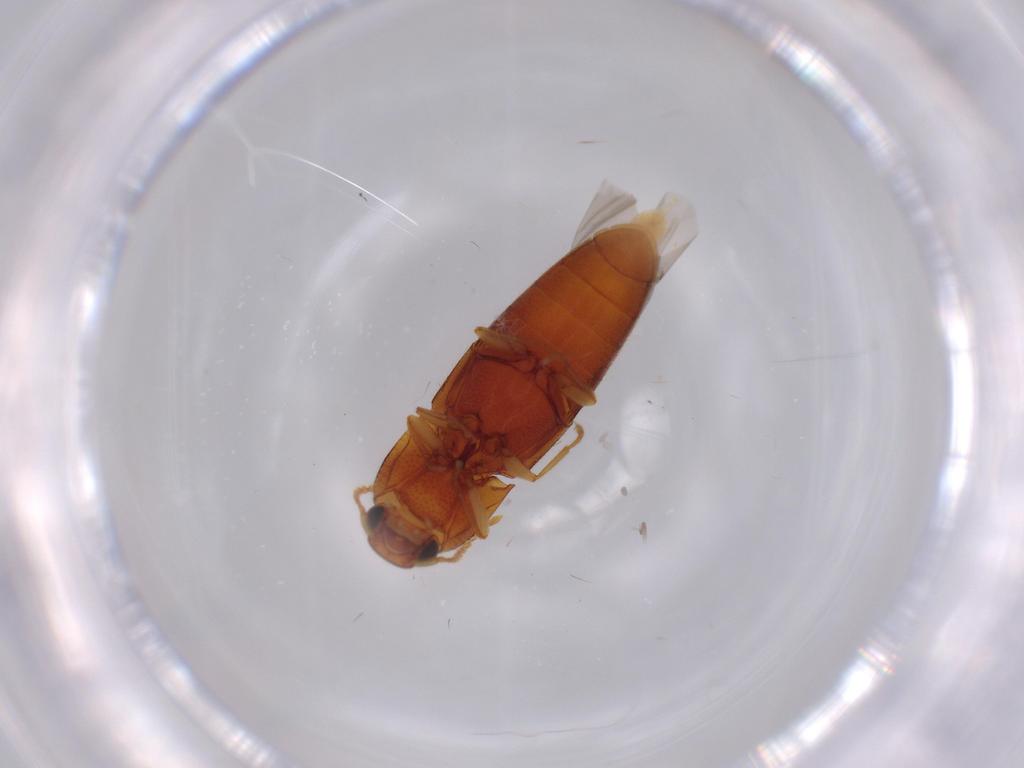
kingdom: Animalia
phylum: Arthropoda
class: Insecta
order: Coleoptera
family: Elateridae
